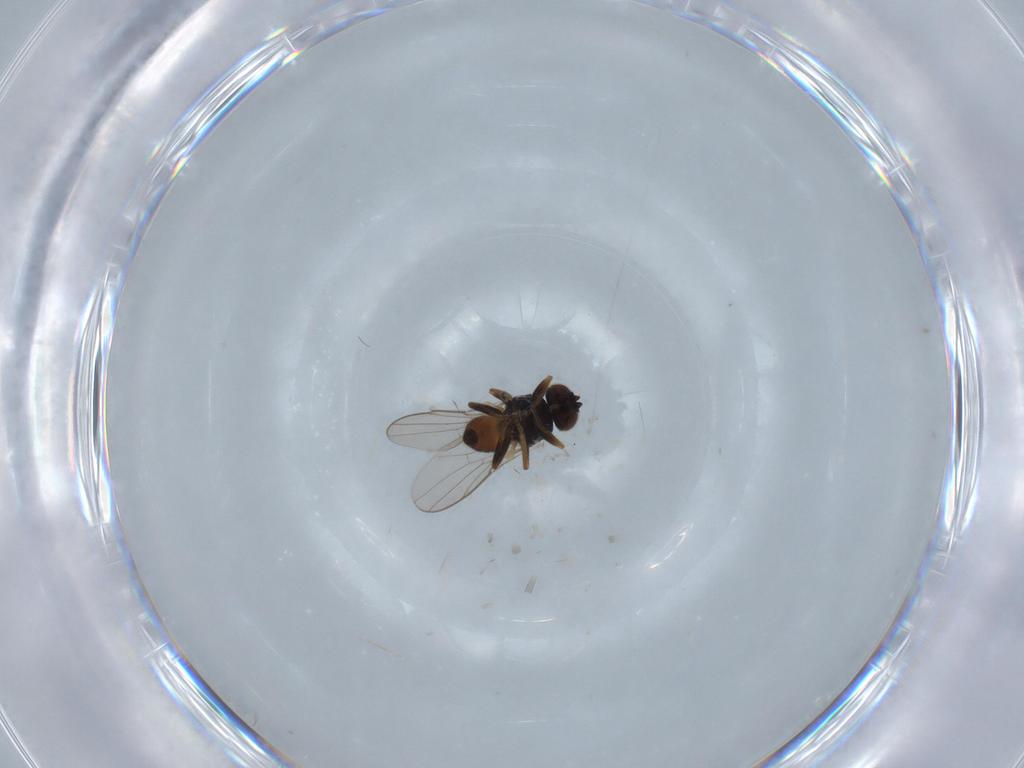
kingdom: Animalia
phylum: Arthropoda
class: Insecta
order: Diptera
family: Chloropidae
